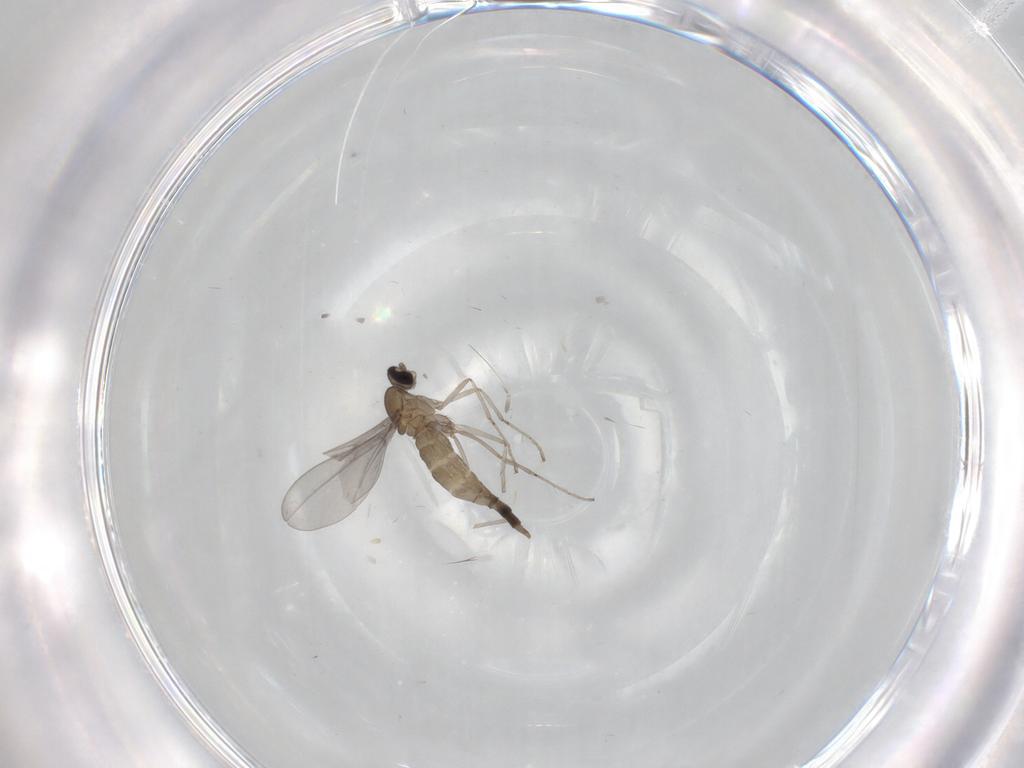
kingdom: Animalia
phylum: Arthropoda
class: Insecta
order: Diptera
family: Cecidomyiidae
